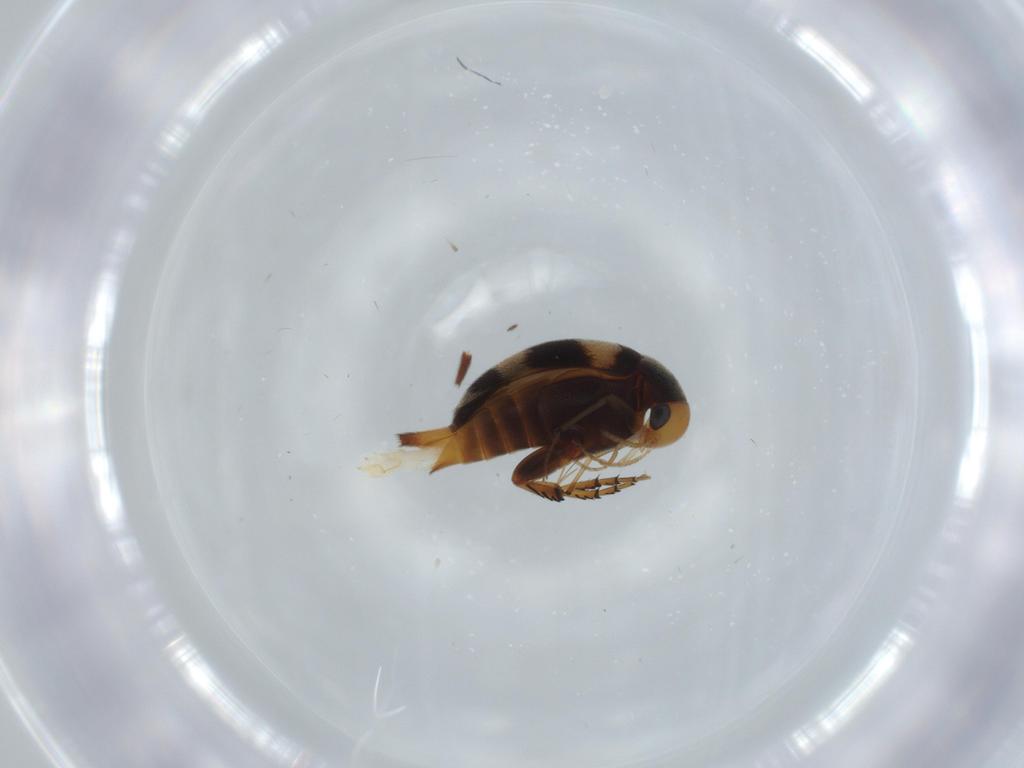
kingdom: Animalia
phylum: Arthropoda
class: Insecta
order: Coleoptera
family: Mordellidae
